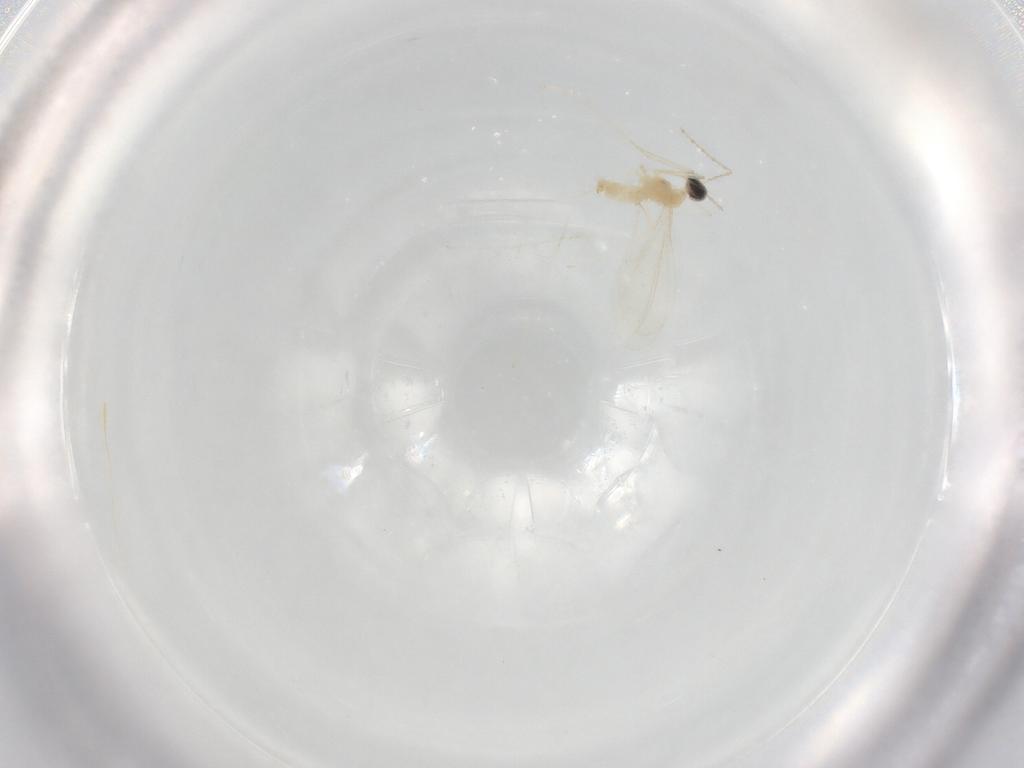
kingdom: Animalia
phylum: Arthropoda
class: Insecta
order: Diptera
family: Cecidomyiidae
